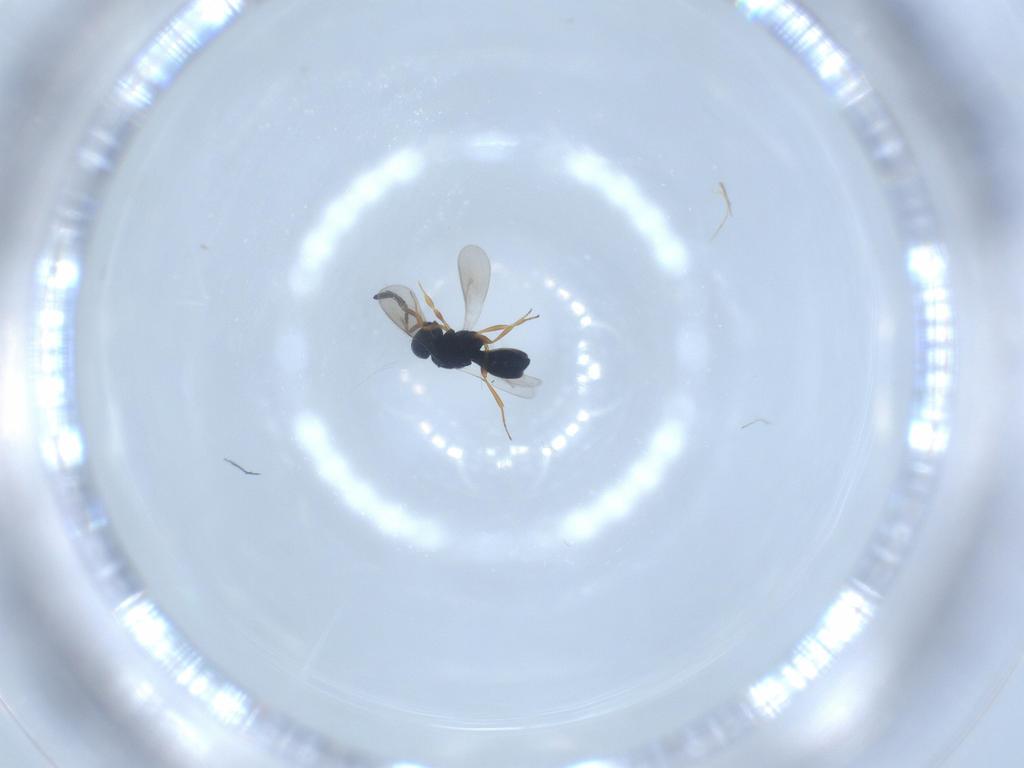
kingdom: Animalia
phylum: Arthropoda
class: Insecta
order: Hymenoptera
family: Scelionidae
